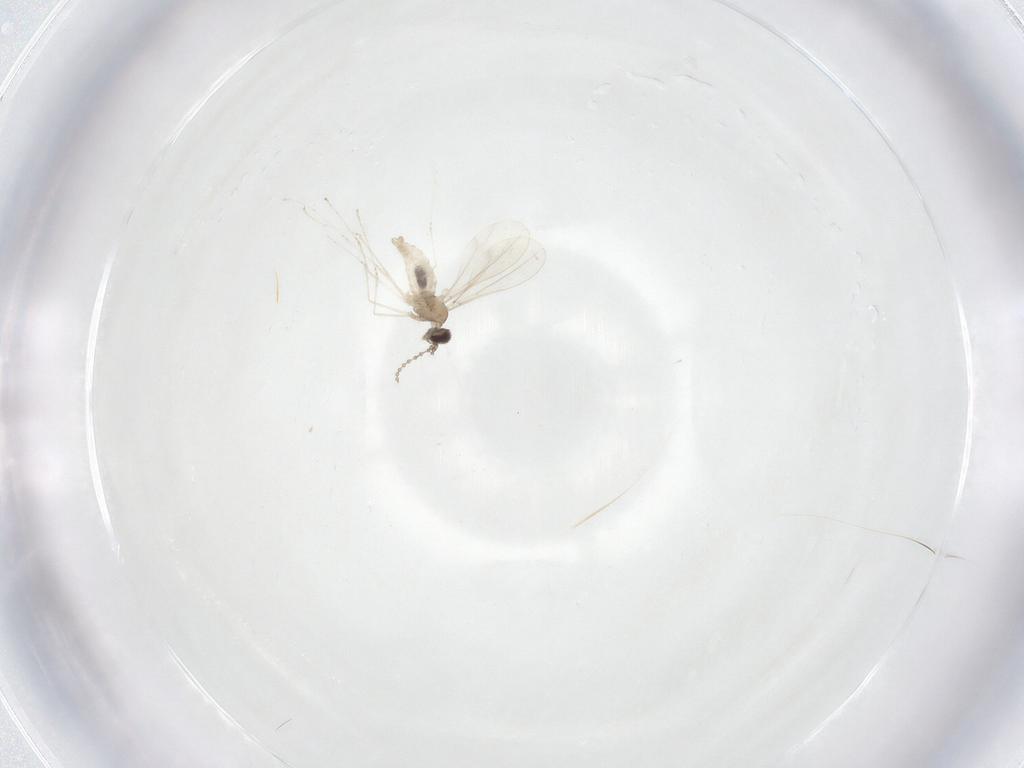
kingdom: Animalia
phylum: Arthropoda
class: Insecta
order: Diptera
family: Cecidomyiidae
